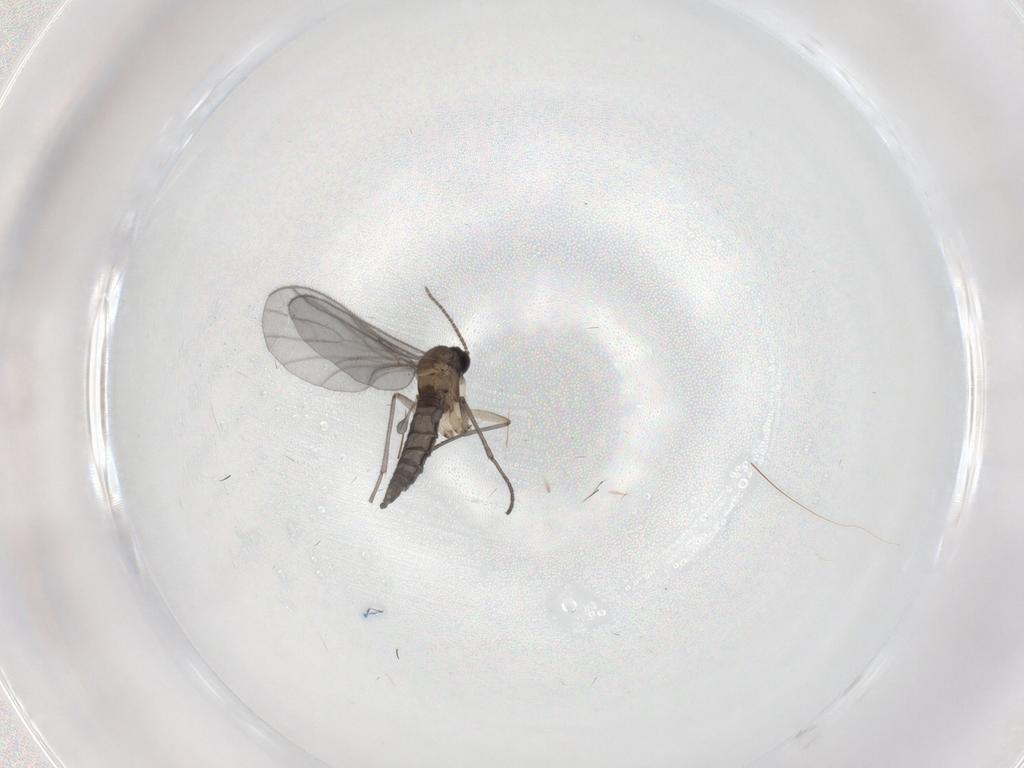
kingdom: Animalia
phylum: Arthropoda
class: Insecta
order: Diptera
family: Sciaridae
